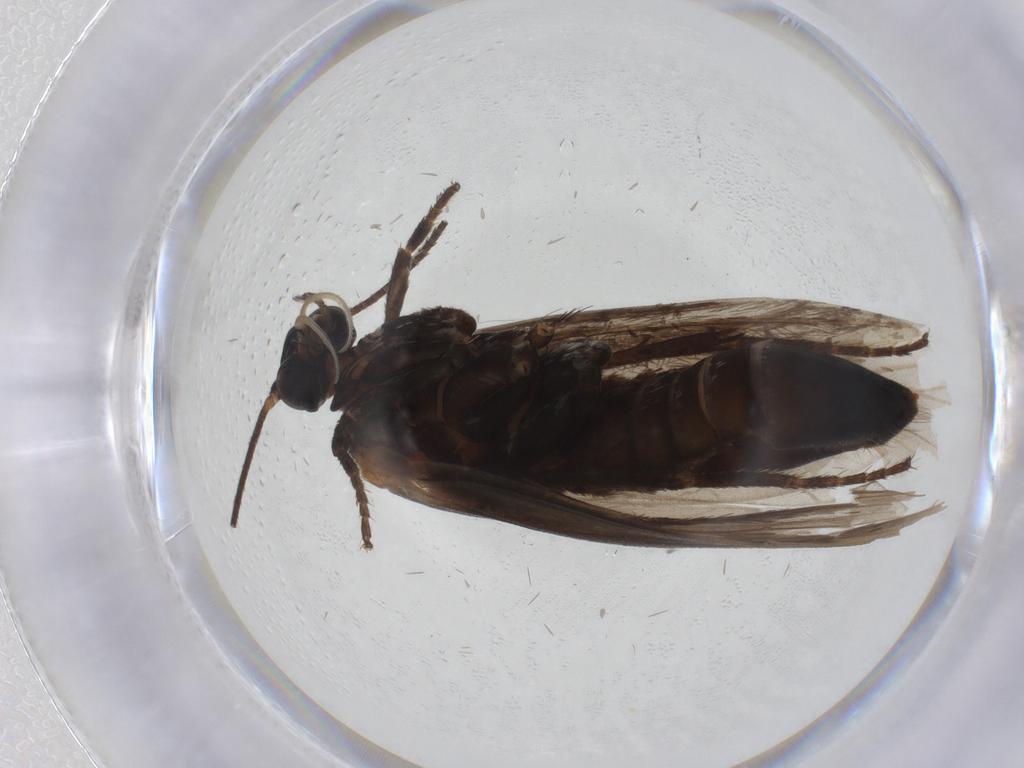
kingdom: Animalia
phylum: Arthropoda
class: Insecta
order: Lepidoptera
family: Prodoxidae
